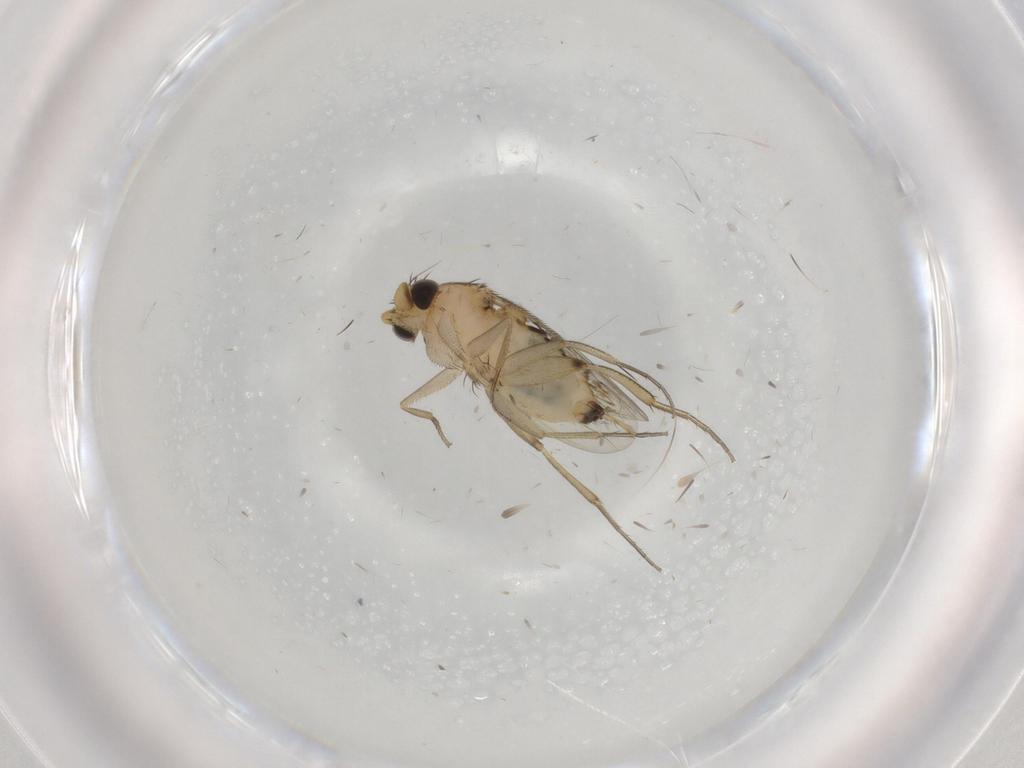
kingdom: Animalia
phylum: Arthropoda
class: Insecta
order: Diptera
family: Phoridae
